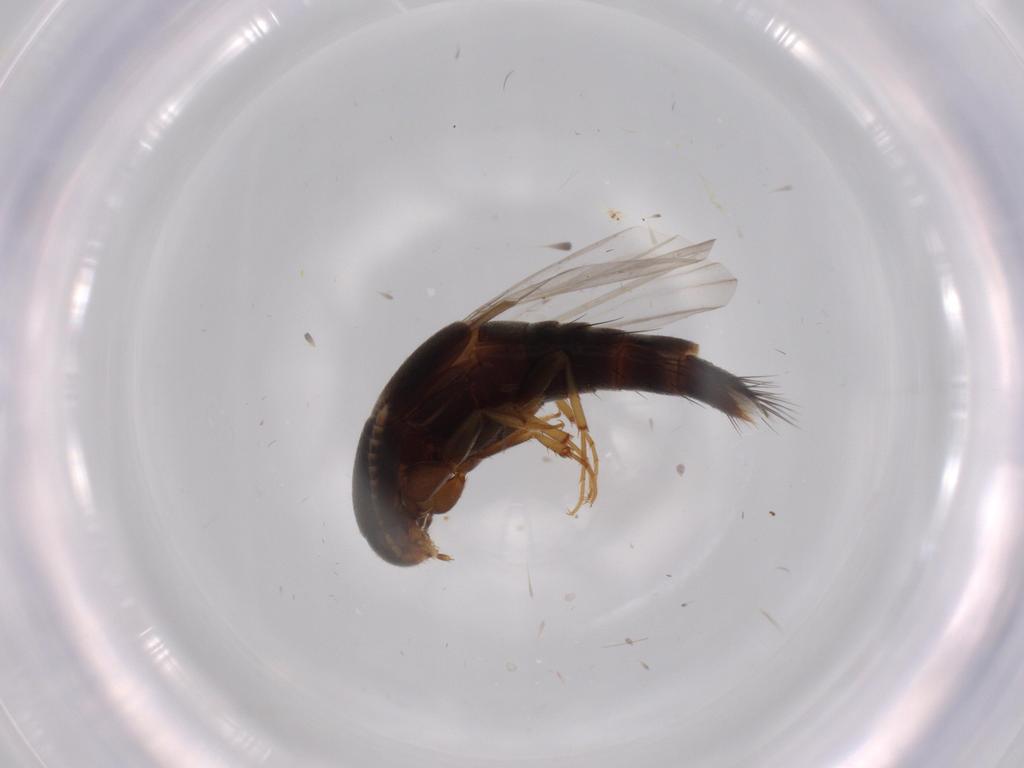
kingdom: Animalia
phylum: Arthropoda
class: Insecta
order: Coleoptera
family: Staphylinidae
